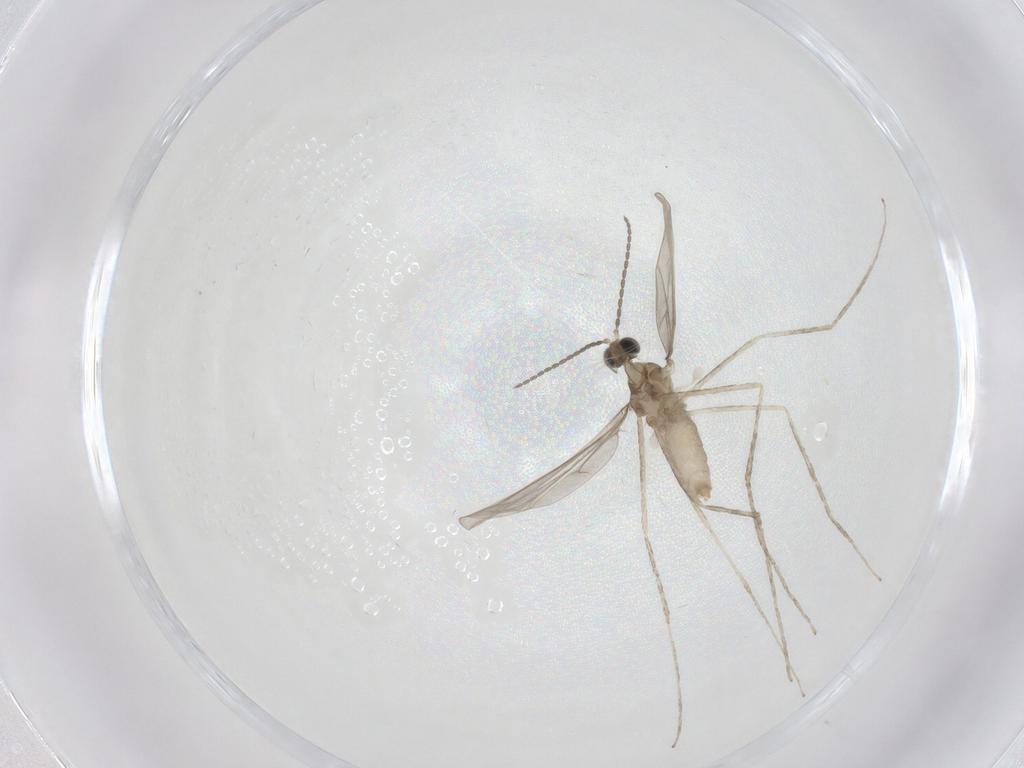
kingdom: Animalia
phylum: Arthropoda
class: Insecta
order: Diptera
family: Cecidomyiidae
